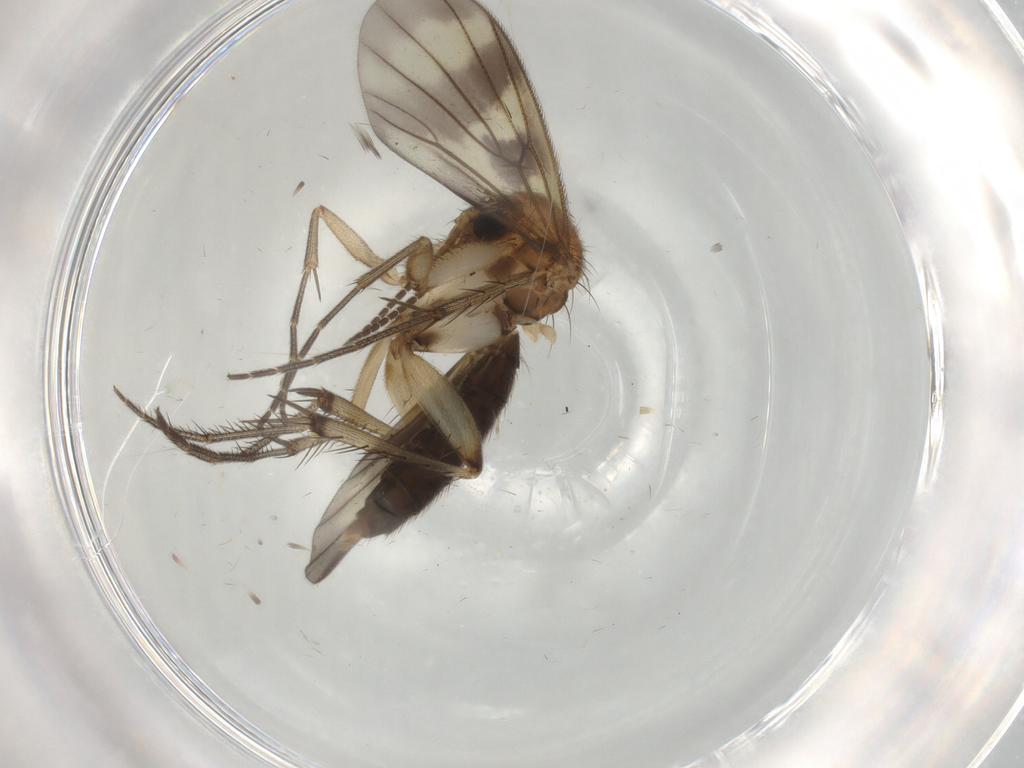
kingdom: Animalia
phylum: Arthropoda
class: Insecta
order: Diptera
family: Mycetophilidae
